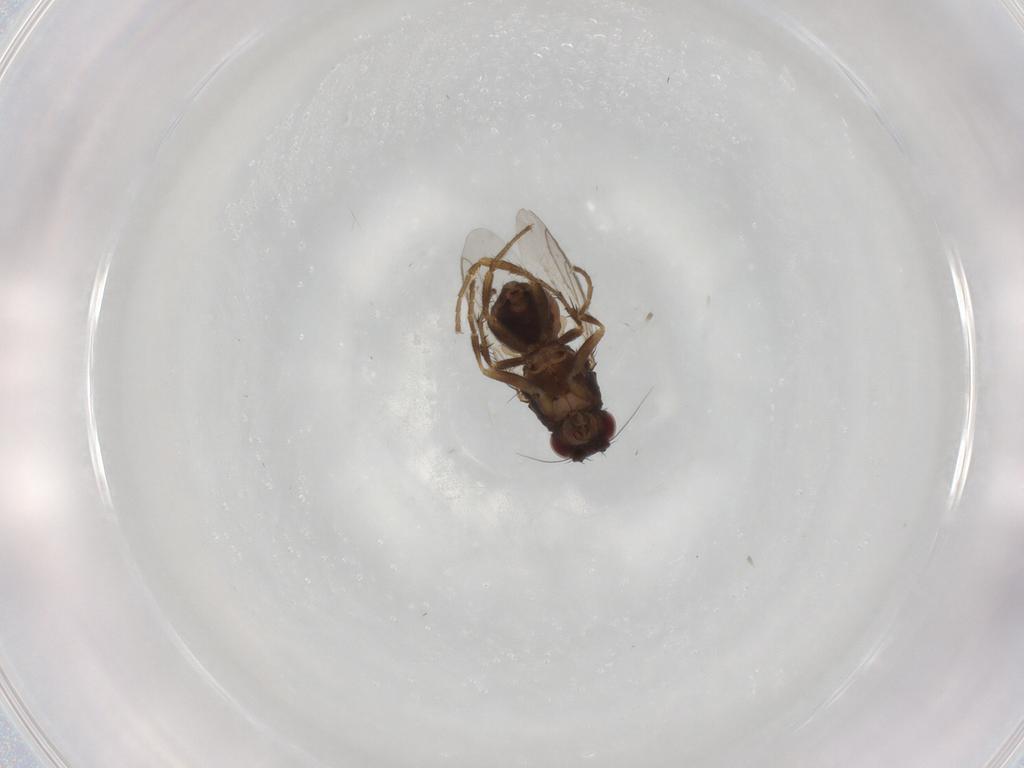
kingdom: Animalia
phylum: Arthropoda
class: Insecta
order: Diptera
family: Sphaeroceridae
